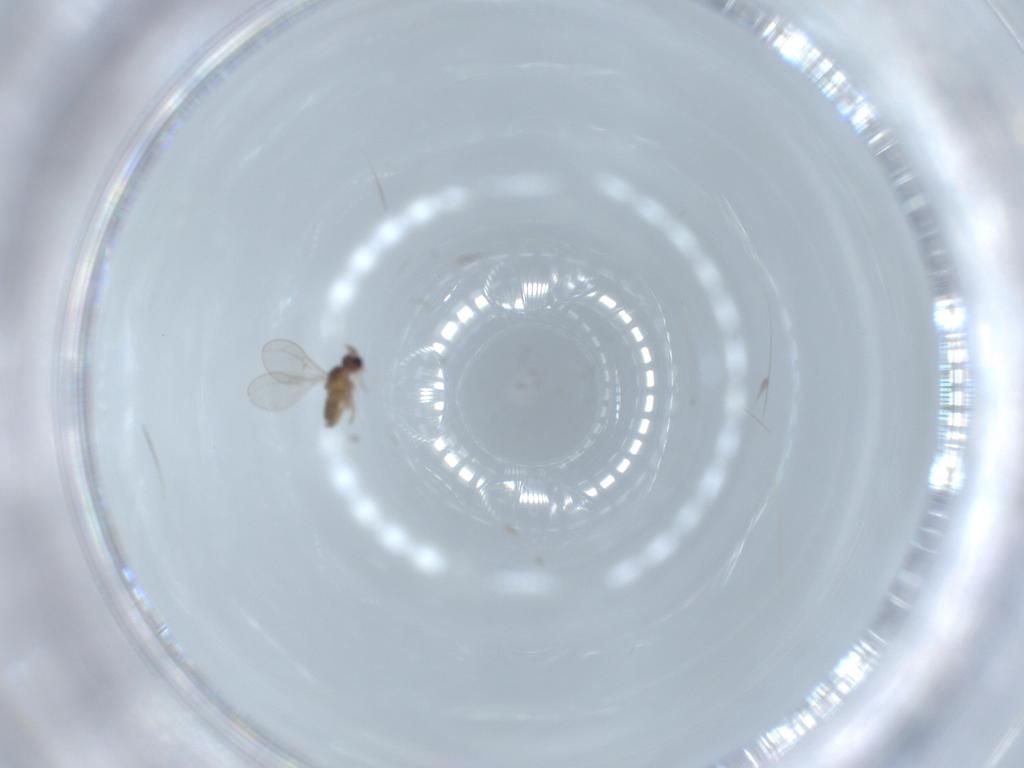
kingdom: Animalia
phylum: Arthropoda
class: Insecta
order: Diptera
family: Cecidomyiidae
